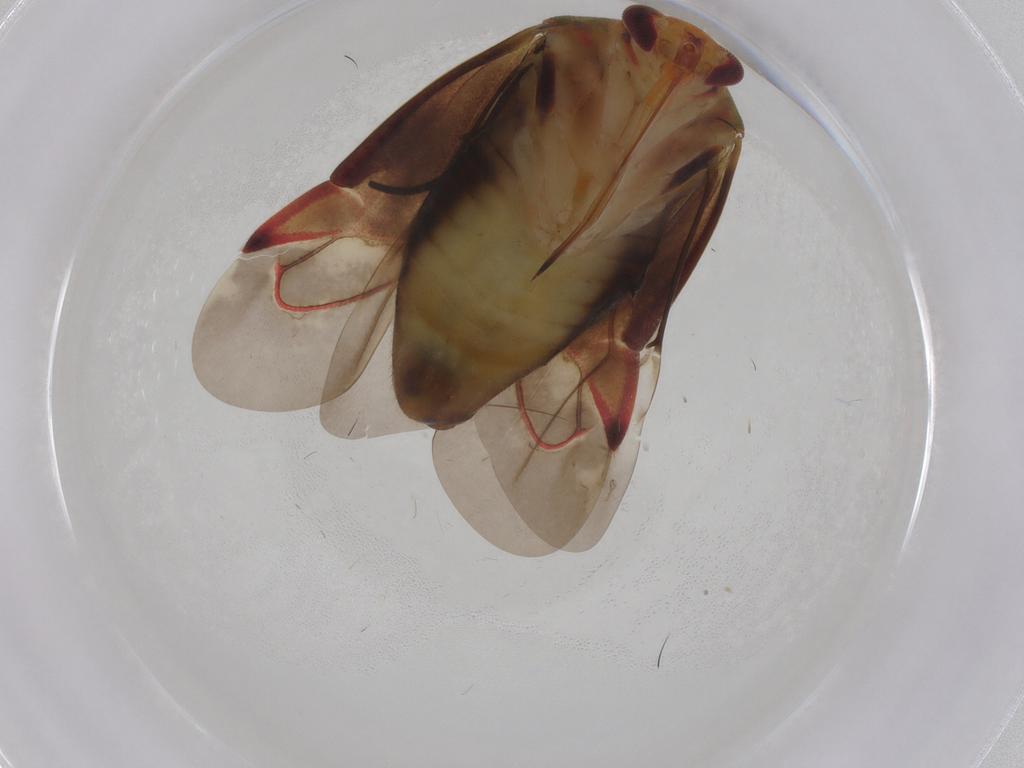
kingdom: Animalia
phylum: Arthropoda
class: Insecta
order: Hemiptera
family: Miridae
